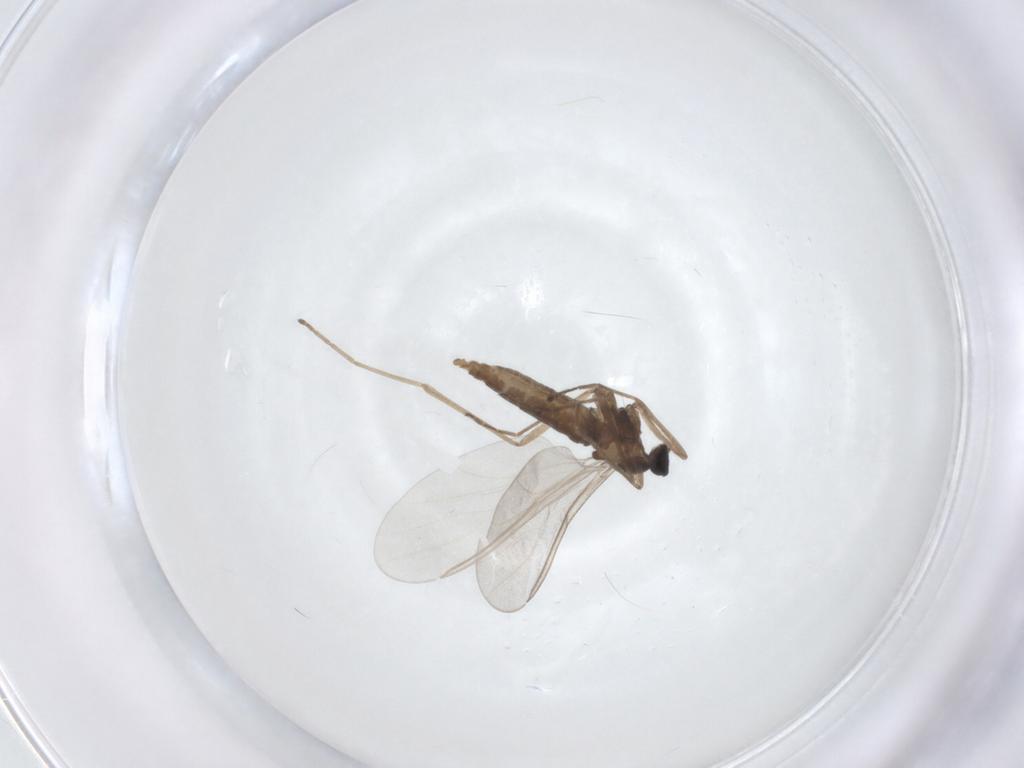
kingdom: Animalia
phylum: Arthropoda
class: Insecta
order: Diptera
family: Cecidomyiidae
